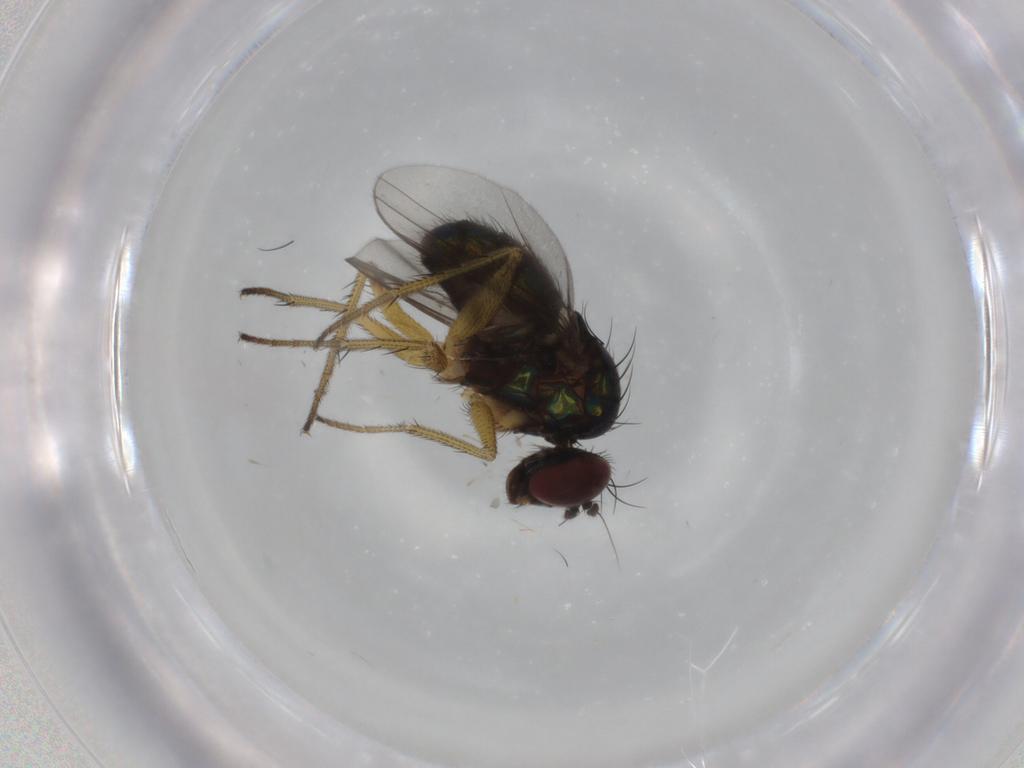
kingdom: Animalia
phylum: Arthropoda
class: Insecta
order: Diptera
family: Dolichopodidae
